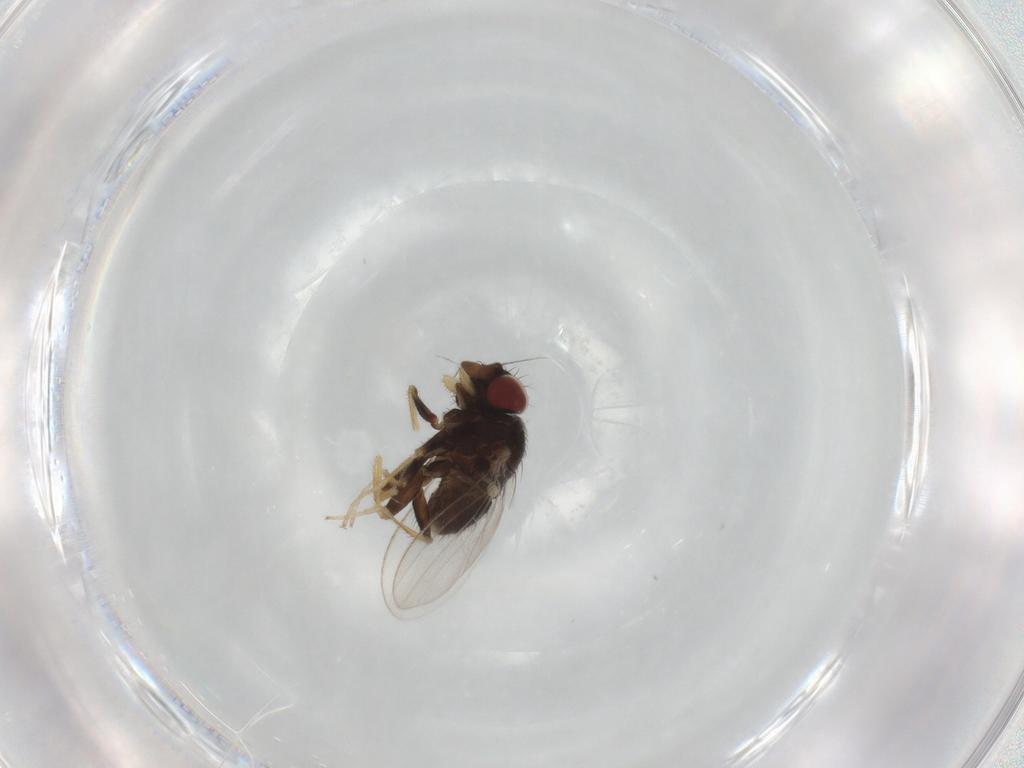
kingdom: Animalia
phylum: Arthropoda
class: Insecta
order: Diptera
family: Milichiidae
